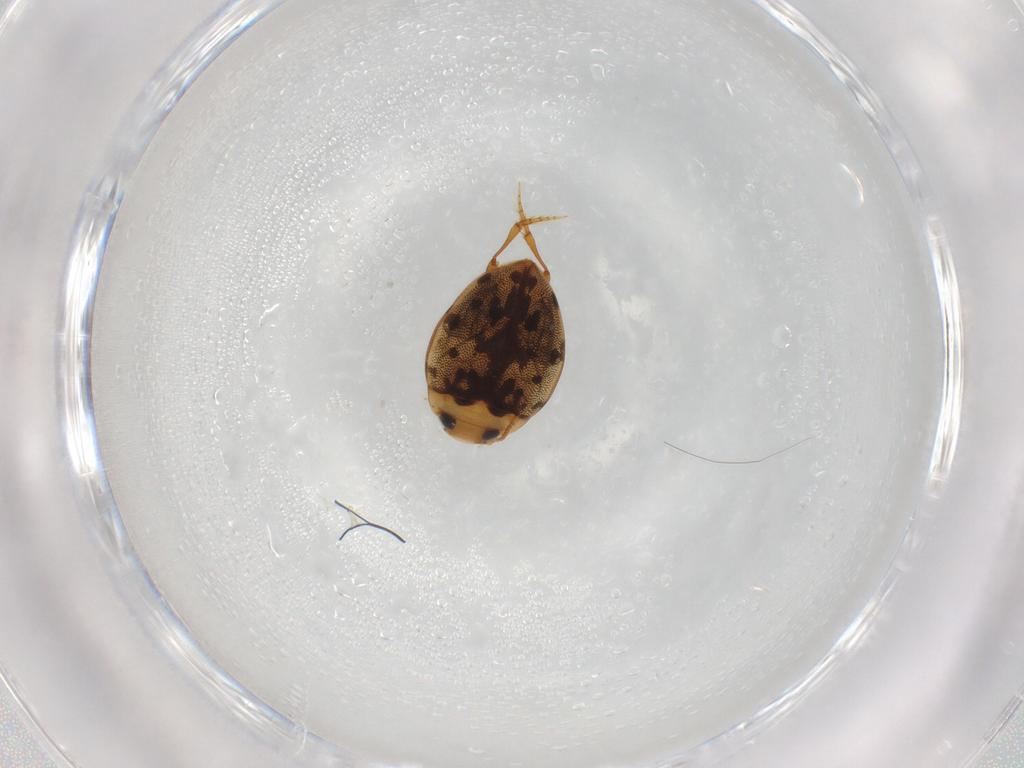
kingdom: Animalia
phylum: Arthropoda
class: Insecta
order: Coleoptera
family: Dytiscidae
